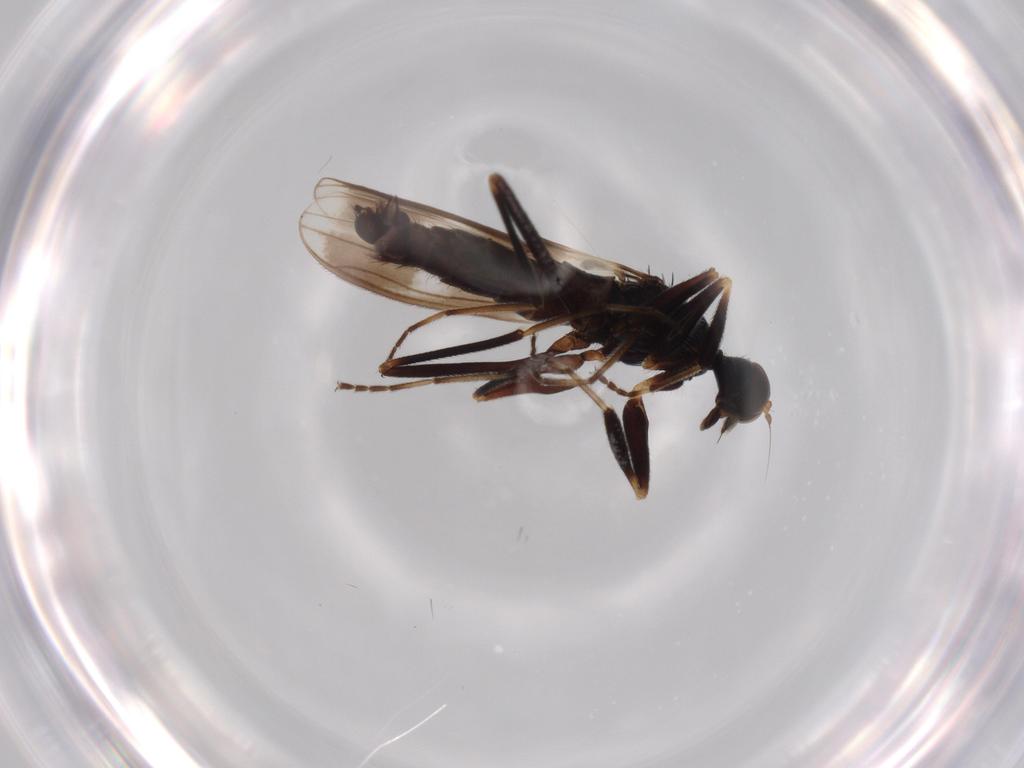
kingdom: Animalia
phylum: Arthropoda
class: Insecta
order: Diptera
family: Hybotidae
